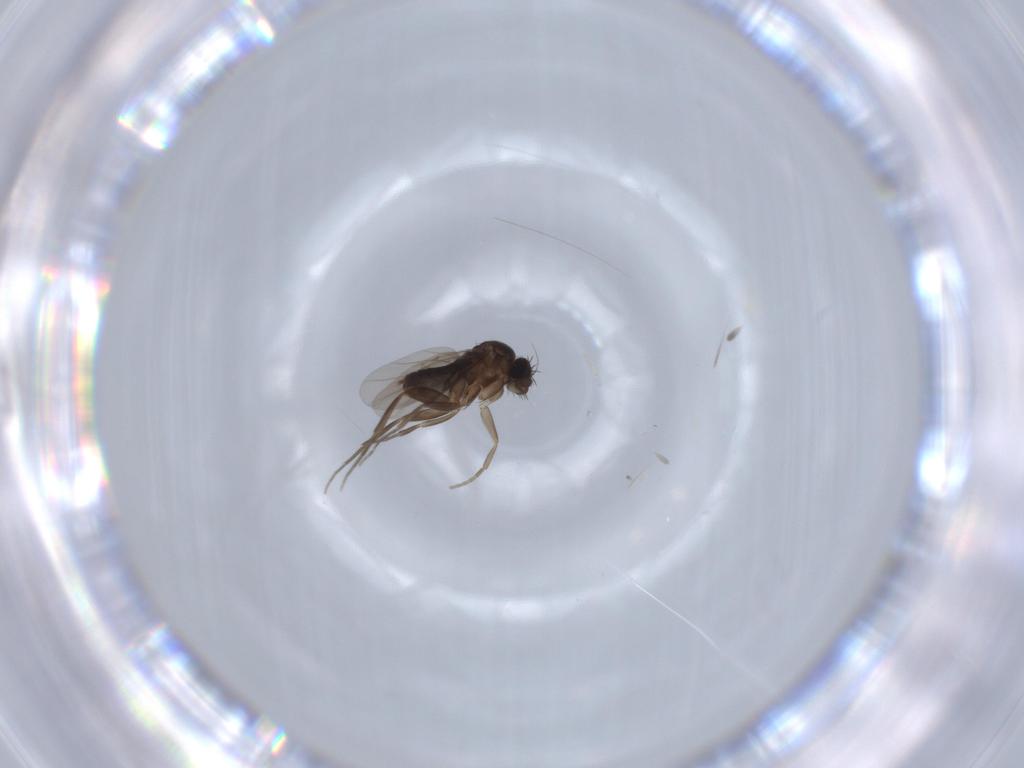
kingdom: Animalia
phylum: Arthropoda
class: Insecta
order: Diptera
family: Phoridae
